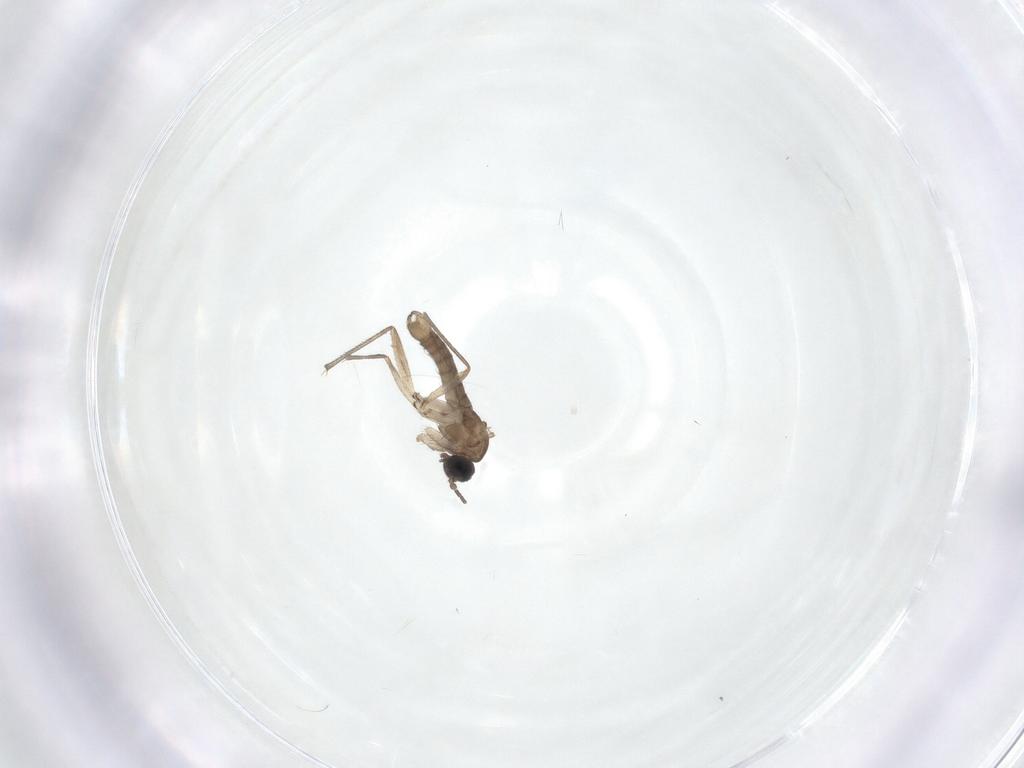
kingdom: Animalia
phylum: Arthropoda
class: Insecta
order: Diptera
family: Sciaridae
